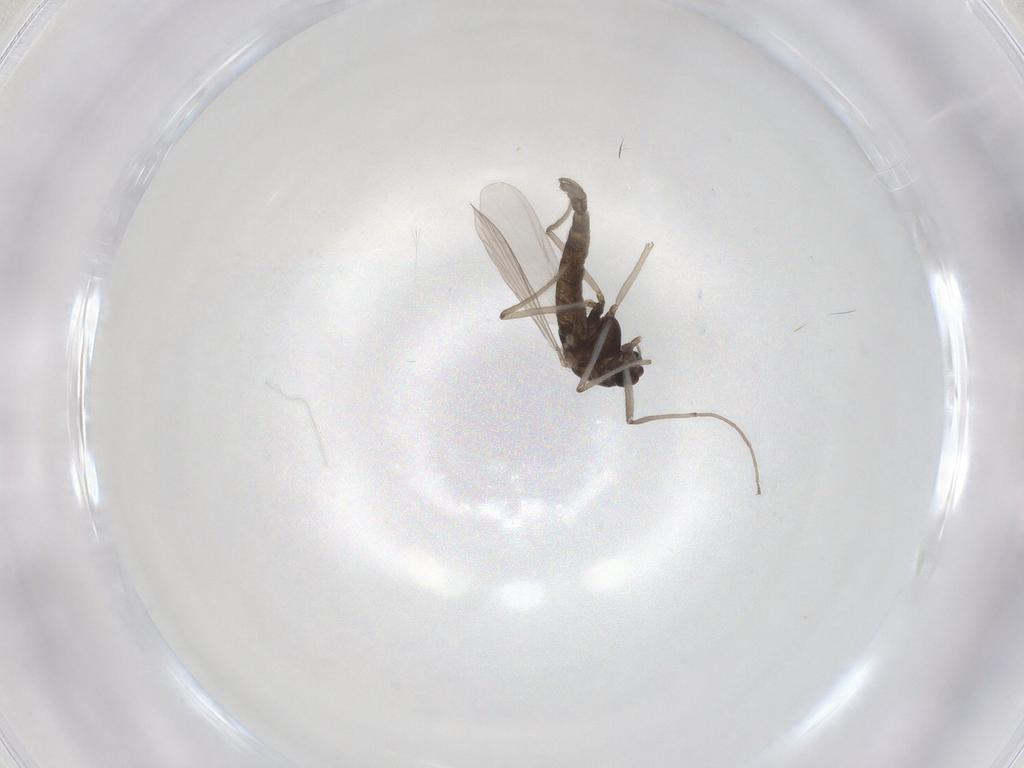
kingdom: Animalia
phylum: Arthropoda
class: Insecta
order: Diptera
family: Chironomidae
